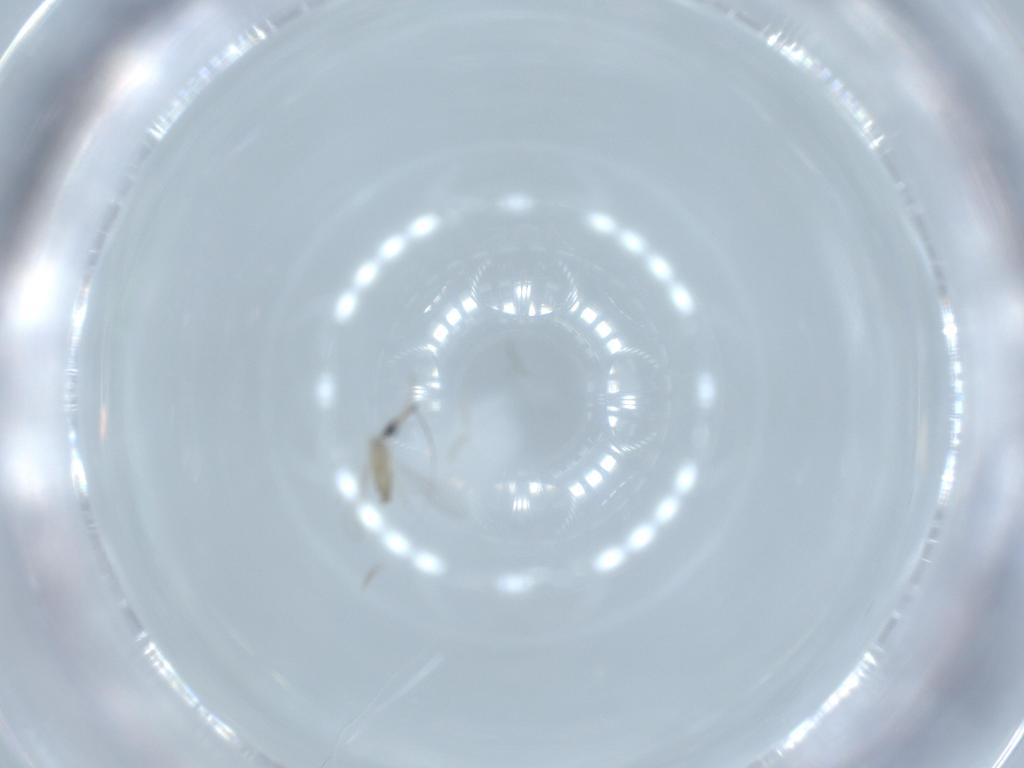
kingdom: Animalia
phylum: Arthropoda
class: Insecta
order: Diptera
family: Cecidomyiidae
